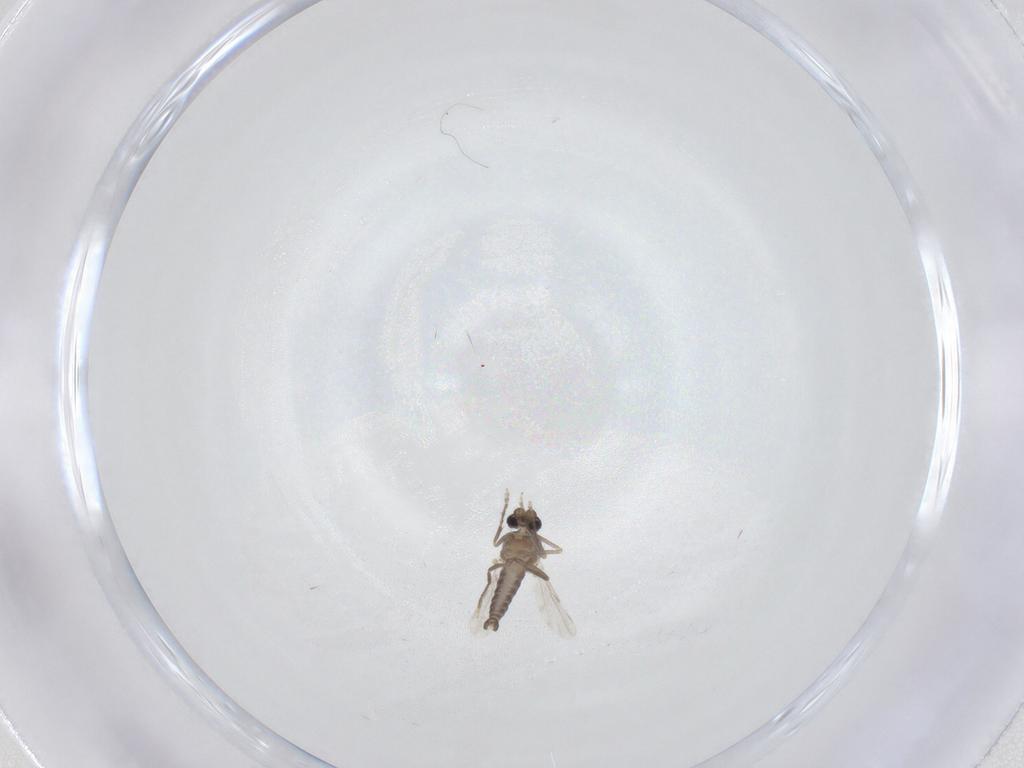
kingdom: Animalia
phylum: Arthropoda
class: Insecta
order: Diptera
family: Ceratopogonidae
